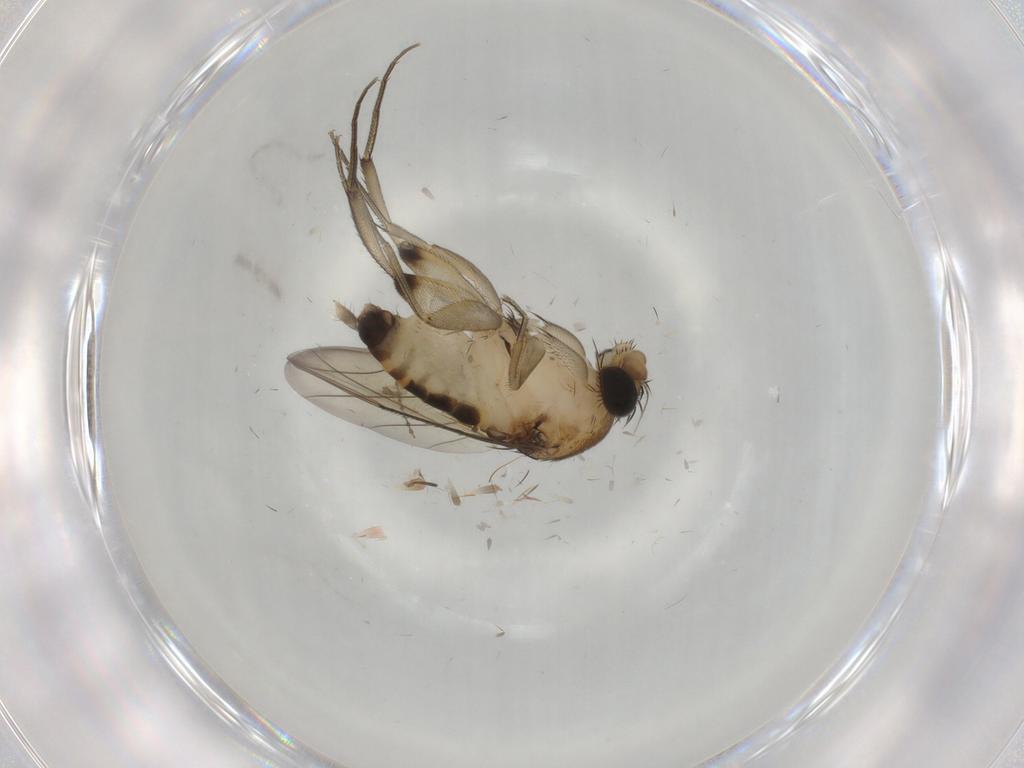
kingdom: Animalia
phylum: Arthropoda
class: Insecta
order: Diptera
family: Phoridae
